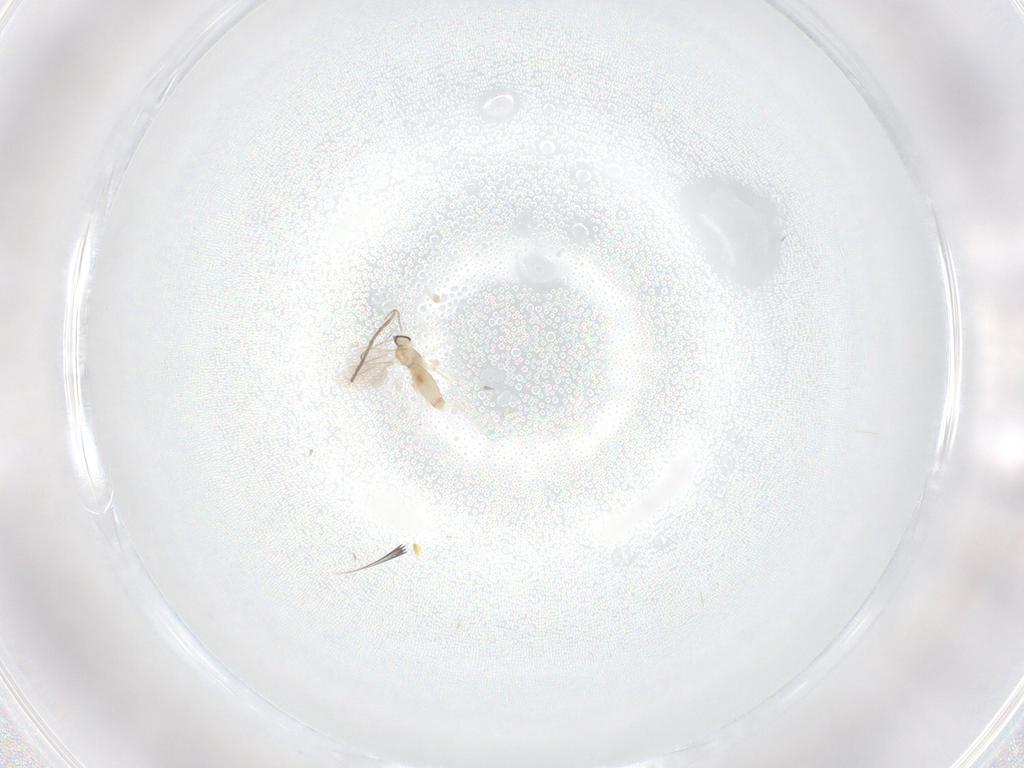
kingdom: Animalia
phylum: Arthropoda
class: Insecta
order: Diptera
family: Cecidomyiidae
